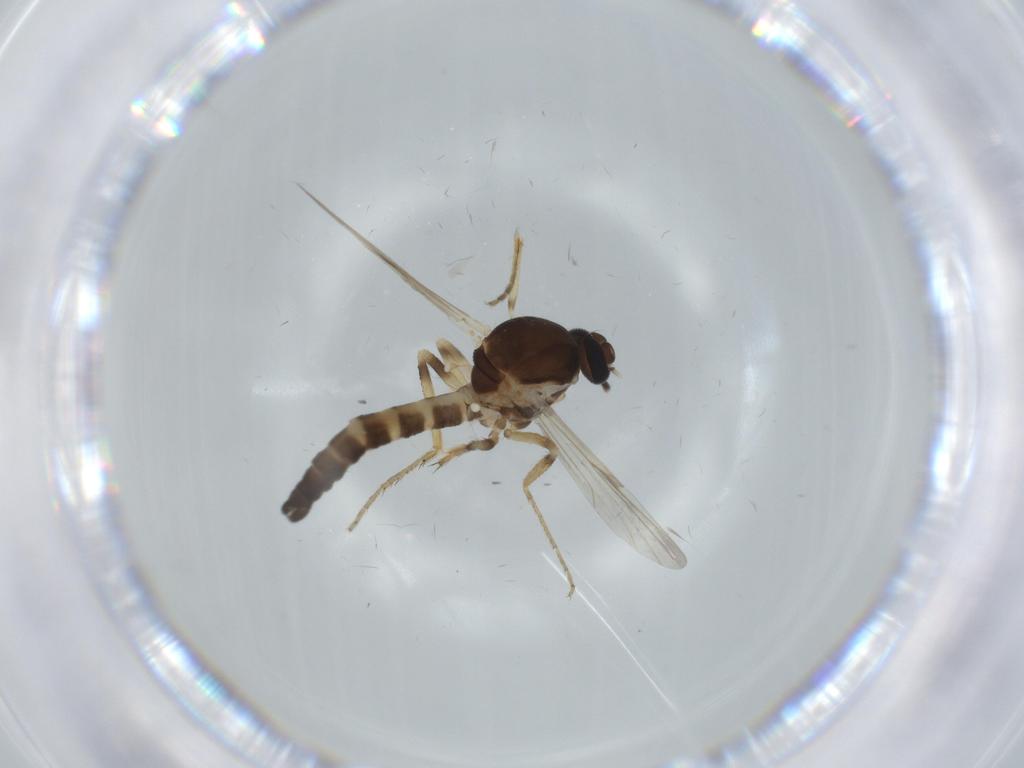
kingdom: Animalia
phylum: Arthropoda
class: Insecta
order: Diptera
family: Ceratopogonidae
